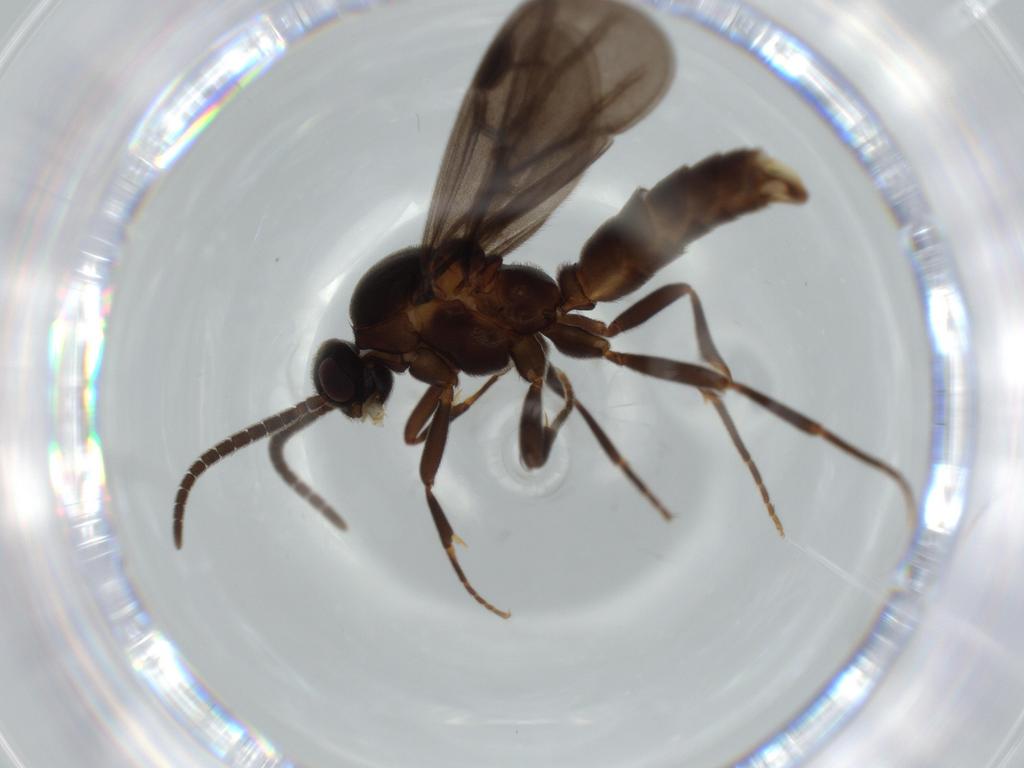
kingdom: Animalia
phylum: Arthropoda
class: Insecta
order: Hymenoptera
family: Formicidae
